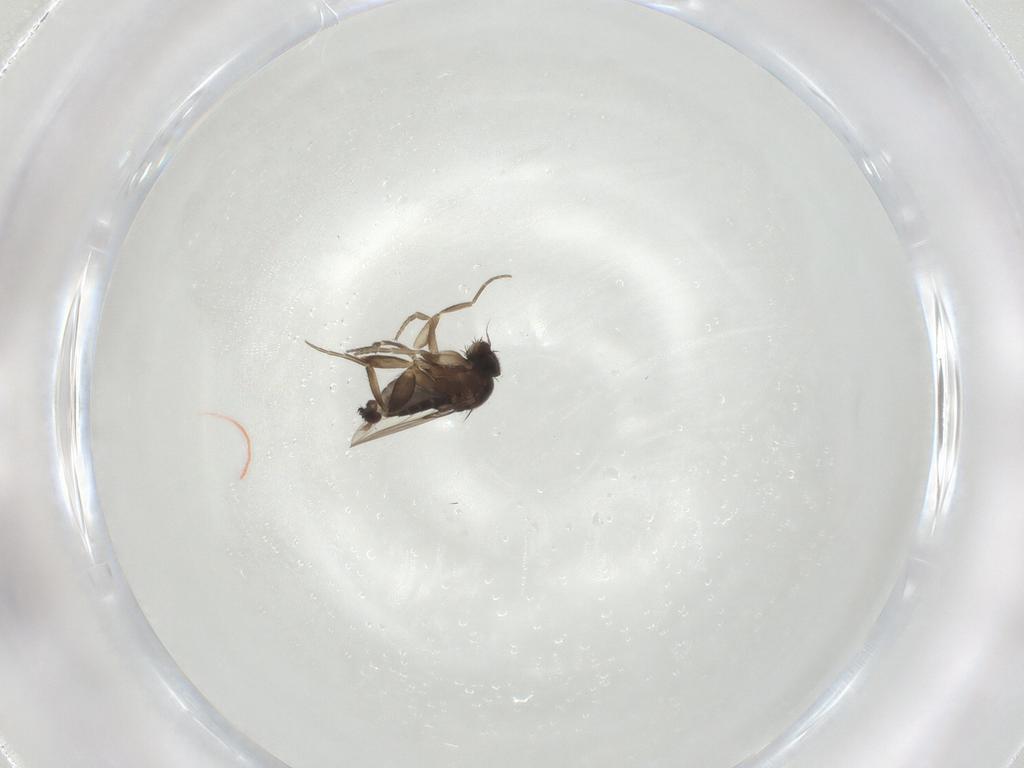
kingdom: Animalia
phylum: Arthropoda
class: Insecta
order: Diptera
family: Phoridae
